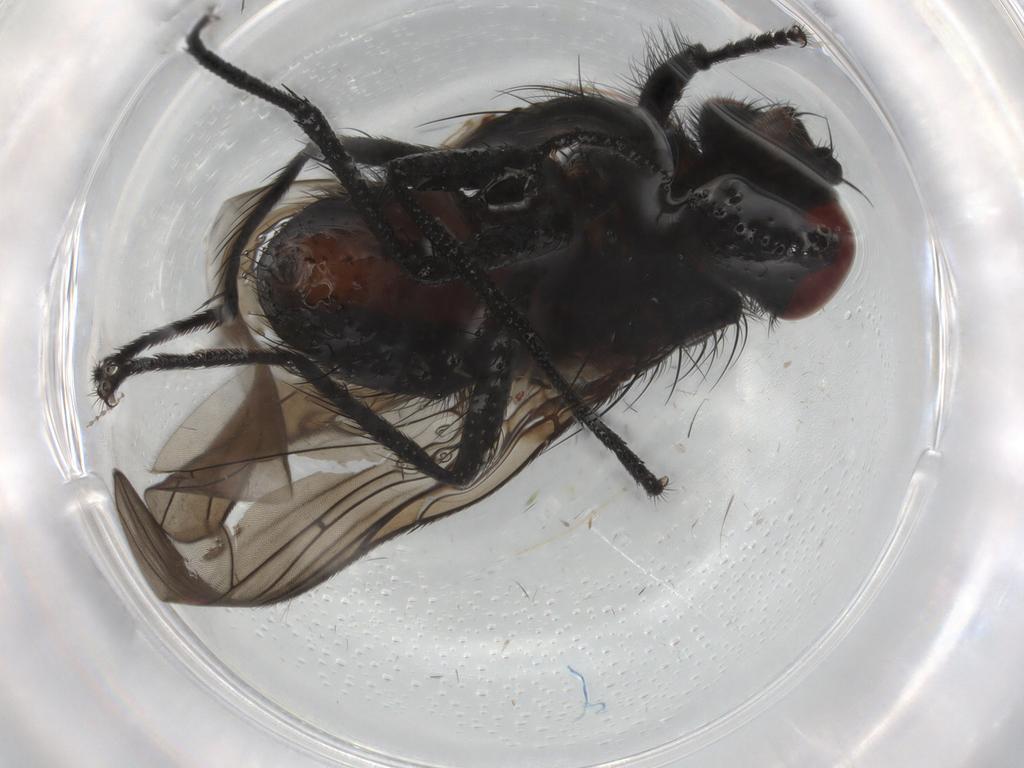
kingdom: Animalia
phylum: Arthropoda
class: Insecta
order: Diptera
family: Anthomyiidae
